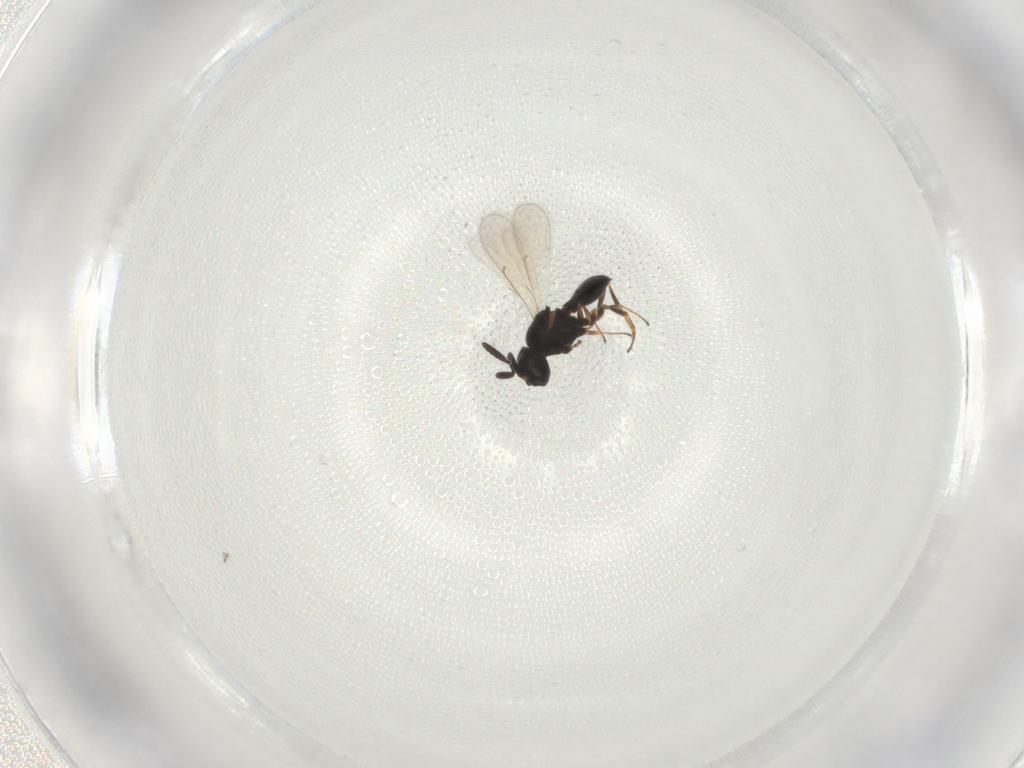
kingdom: Animalia
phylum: Arthropoda
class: Insecta
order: Hymenoptera
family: Scelionidae
